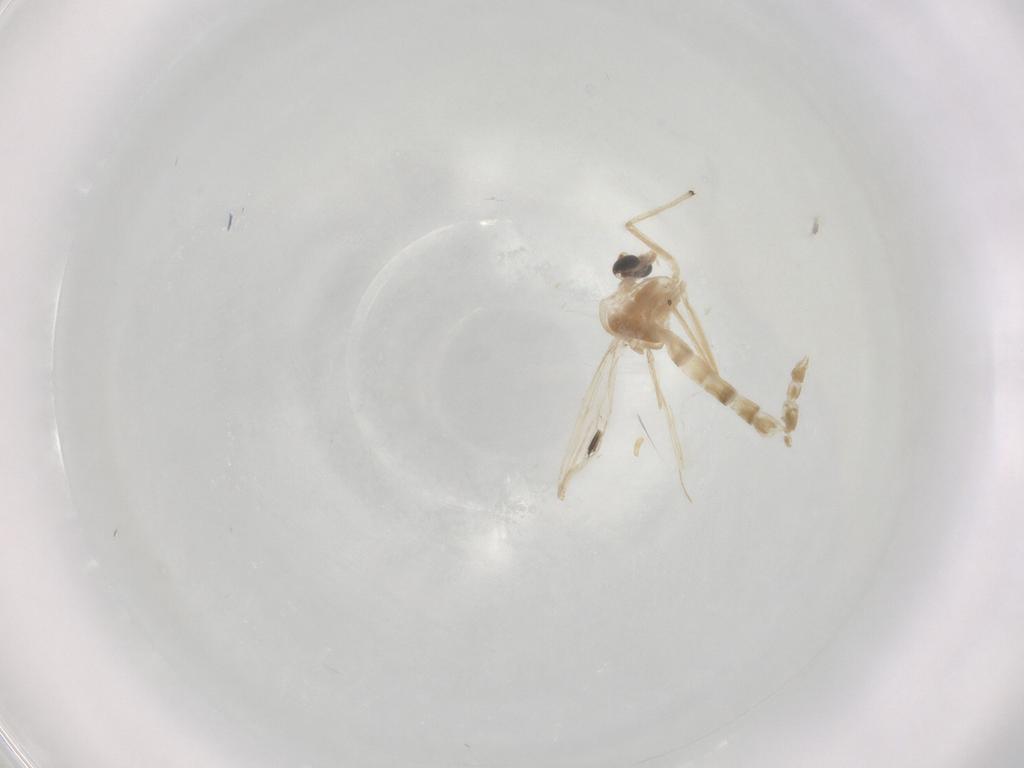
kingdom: Animalia
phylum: Arthropoda
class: Insecta
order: Diptera
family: Chironomidae
